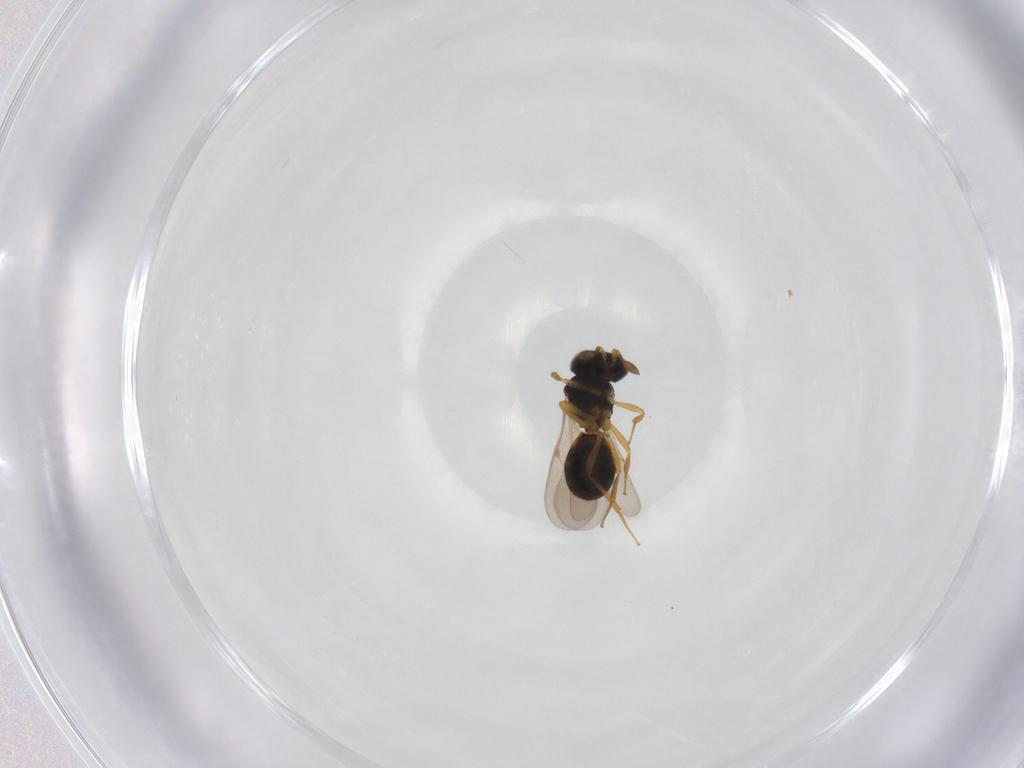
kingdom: Animalia
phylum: Arthropoda
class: Insecta
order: Hymenoptera
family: Scelionidae
